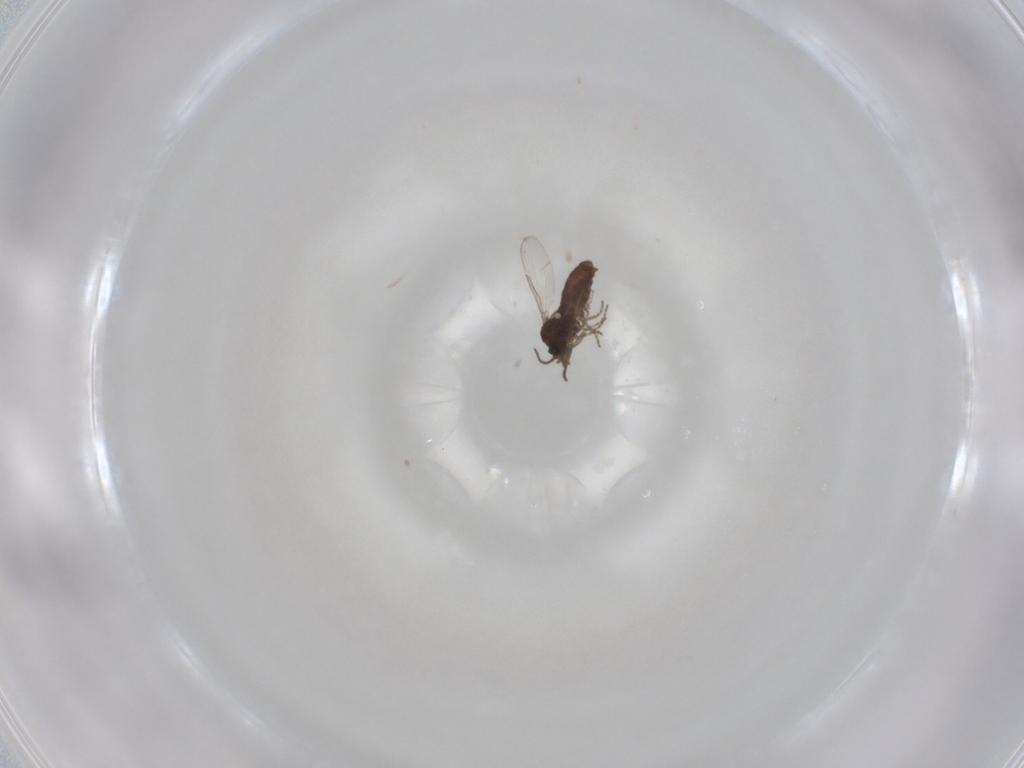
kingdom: Animalia
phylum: Arthropoda
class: Insecta
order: Diptera
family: Ceratopogonidae
